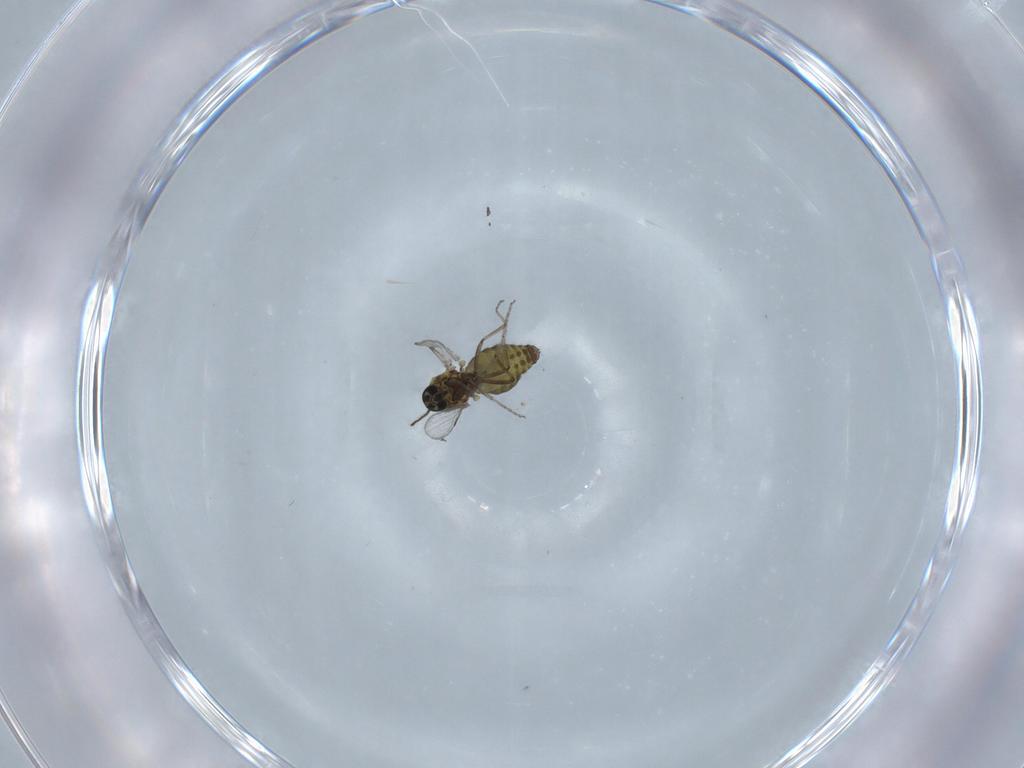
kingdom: Animalia
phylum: Arthropoda
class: Insecta
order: Diptera
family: Ceratopogonidae
